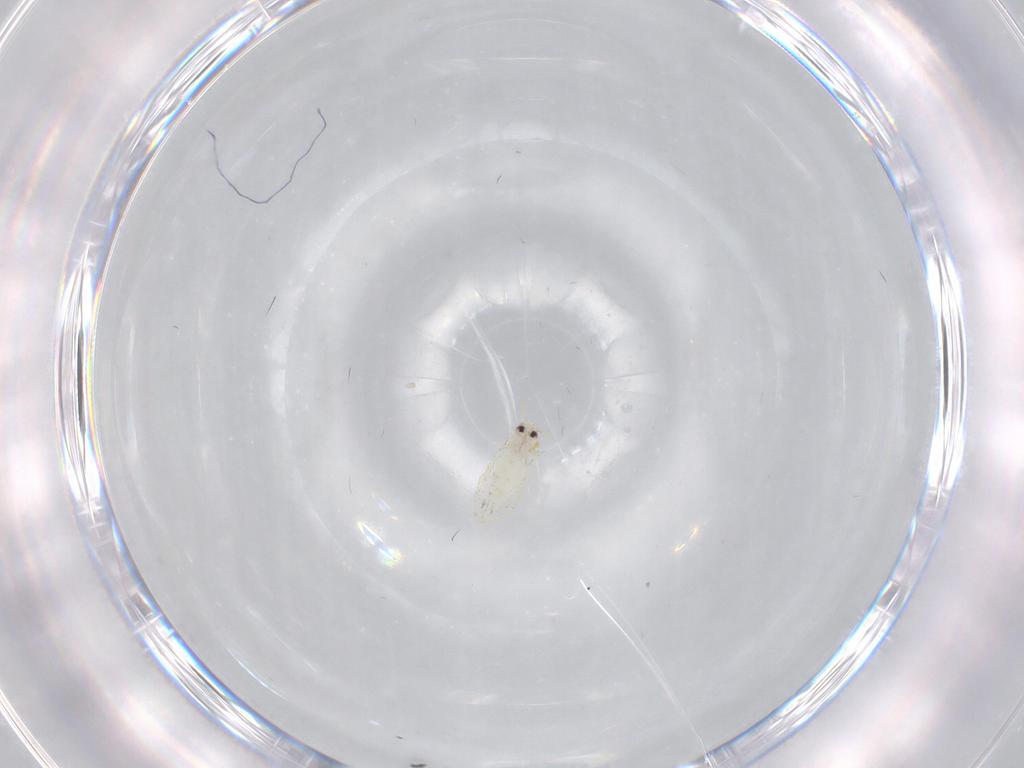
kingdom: Animalia
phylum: Arthropoda
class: Insecta
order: Hemiptera
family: Aleyrodidae
